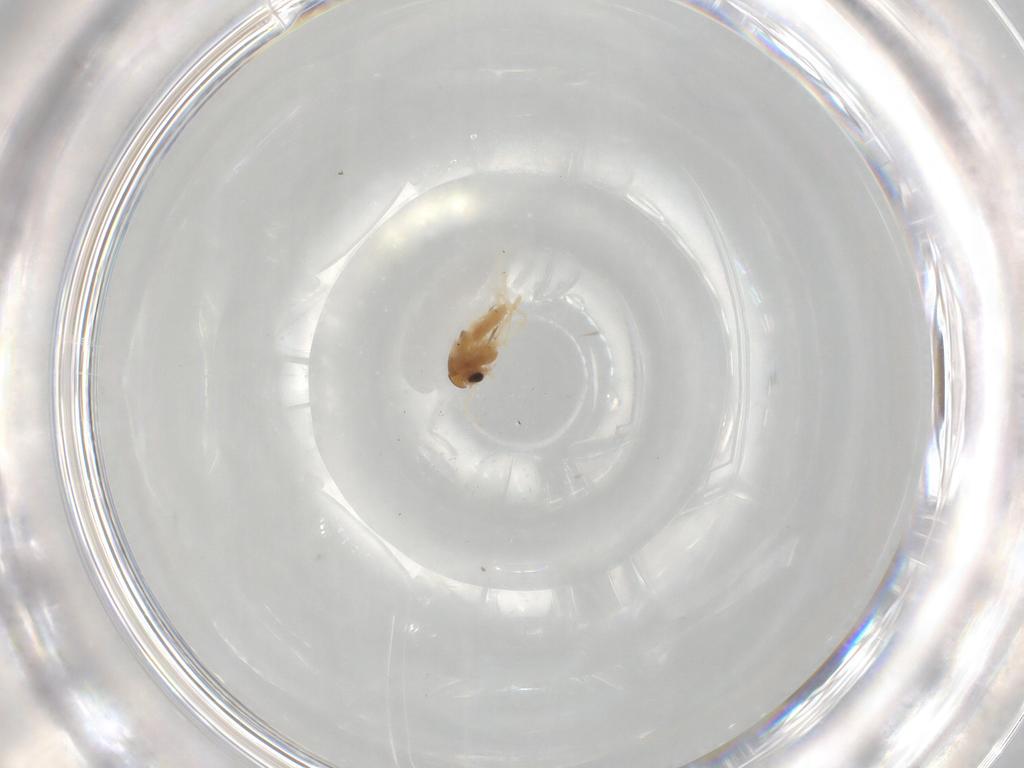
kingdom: Animalia
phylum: Arthropoda
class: Insecta
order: Diptera
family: Chironomidae
